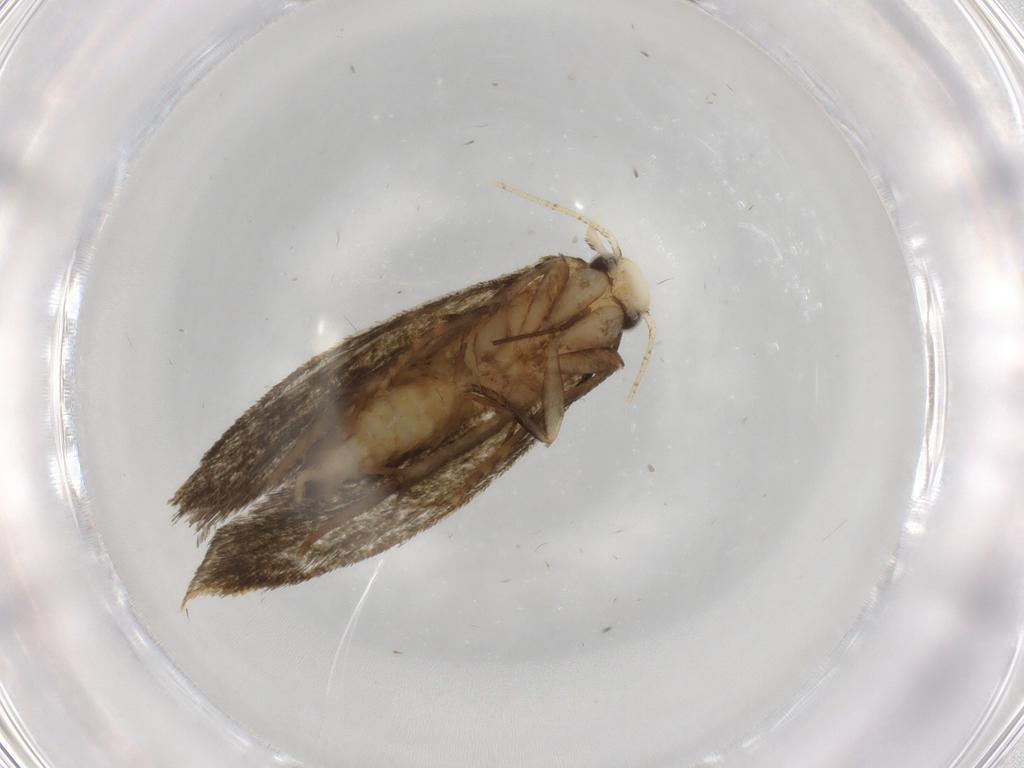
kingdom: Animalia
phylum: Arthropoda
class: Insecta
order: Lepidoptera
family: Pieridae
